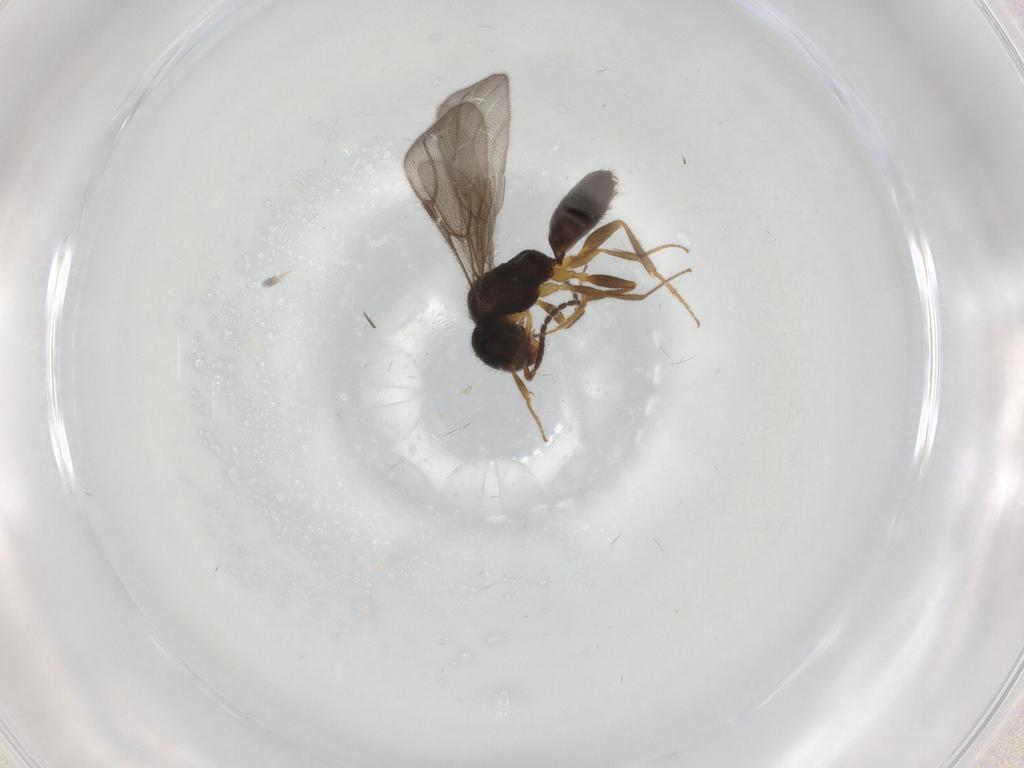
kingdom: Animalia
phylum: Arthropoda
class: Insecta
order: Hymenoptera
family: Bethylidae
